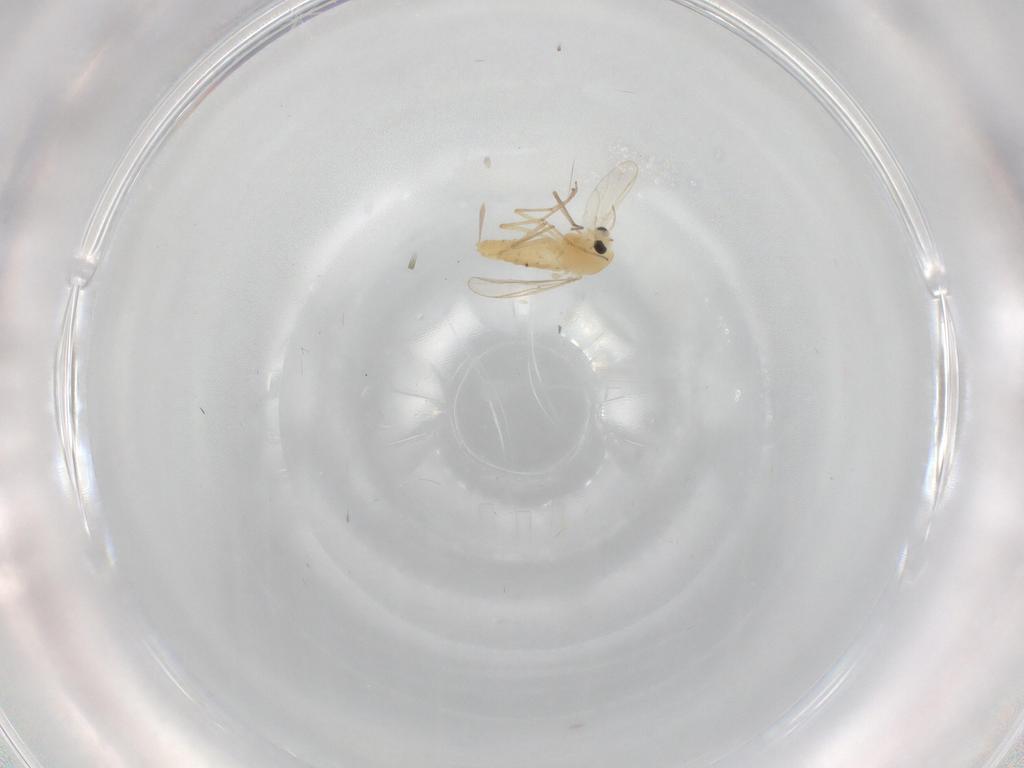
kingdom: Animalia
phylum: Arthropoda
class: Insecta
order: Diptera
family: Chironomidae
